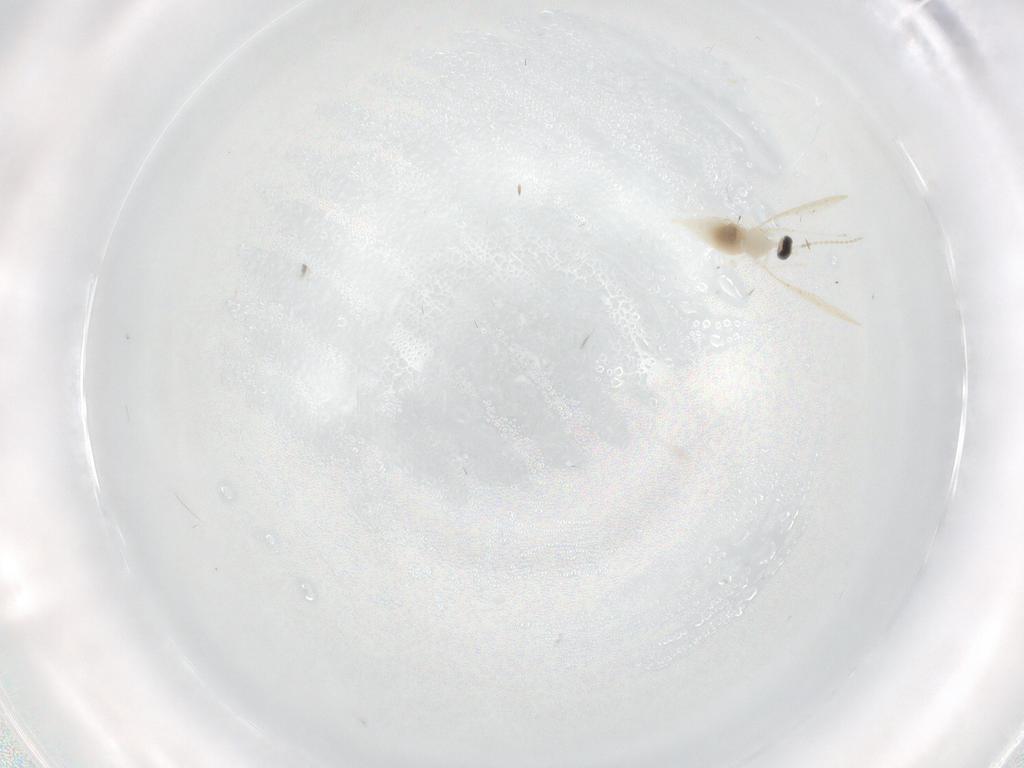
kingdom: Animalia
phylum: Arthropoda
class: Insecta
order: Diptera
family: Cecidomyiidae
